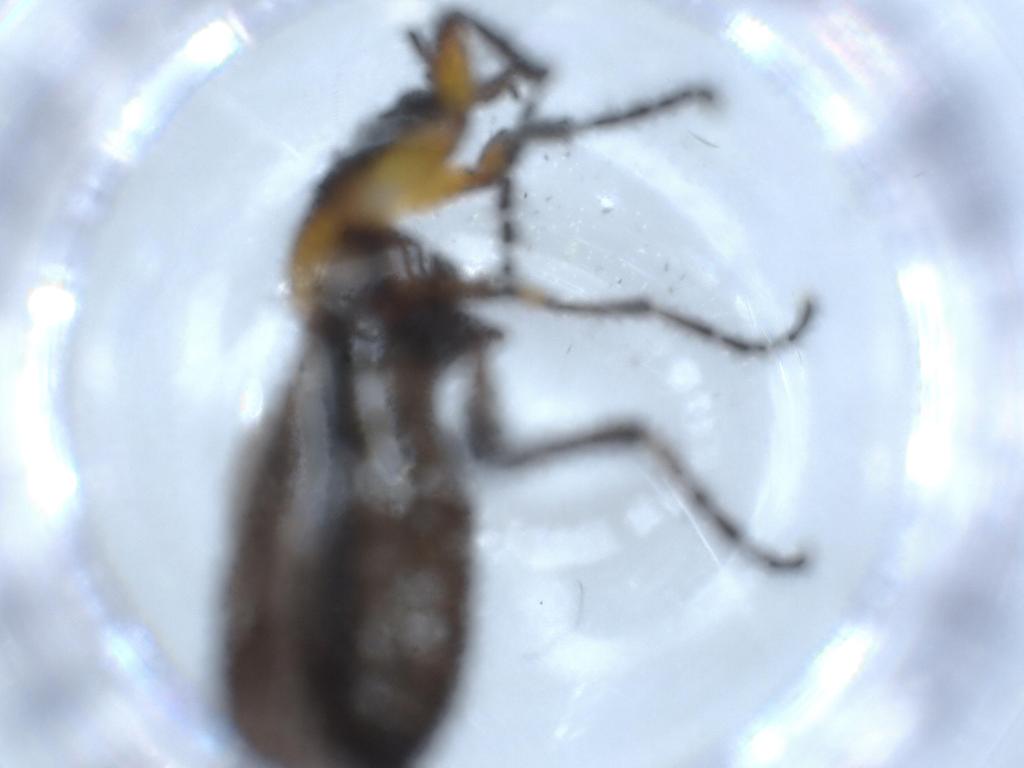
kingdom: Animalia
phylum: Arthropoda
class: Insecta
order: Diptera
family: Bibionidae
